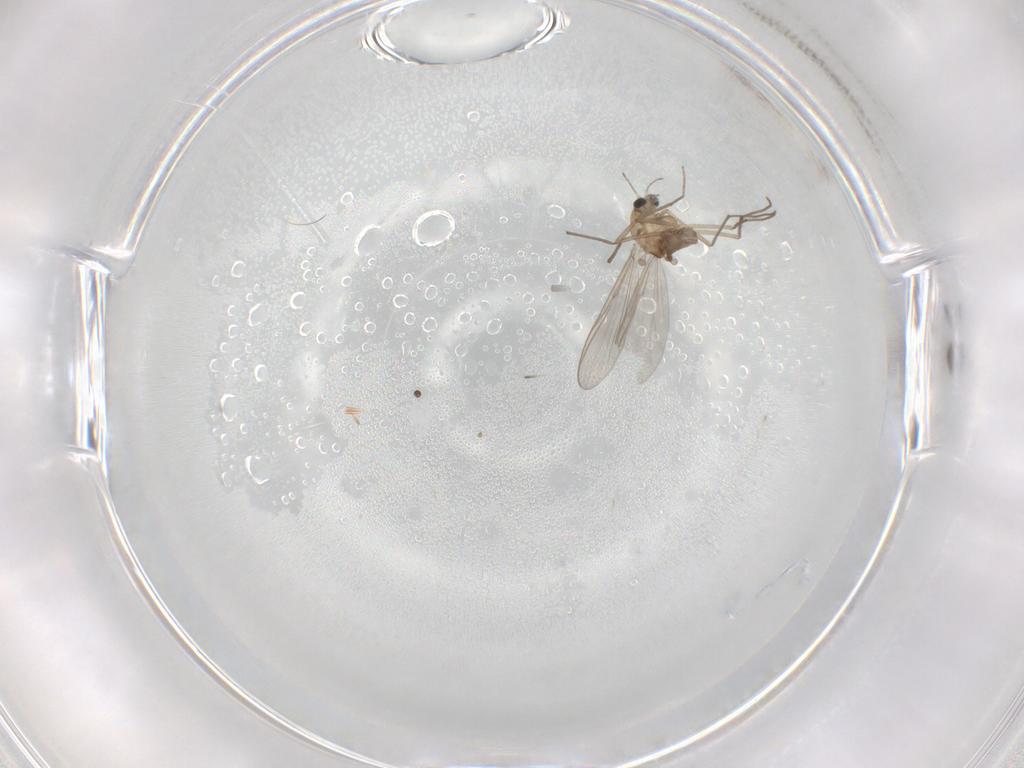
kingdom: Animalia
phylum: Arthropoda
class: Insecta
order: Diptera
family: Chironomidae
